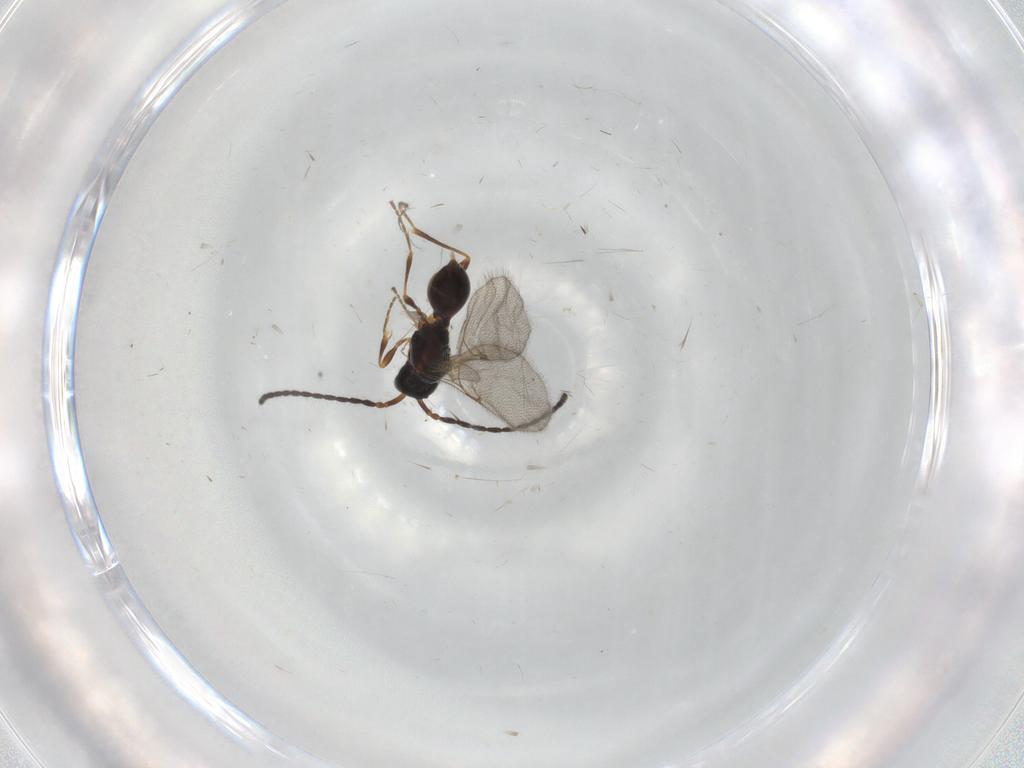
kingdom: Animalia
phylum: Arthropoda
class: Insecta
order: Hymenoptera
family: Diapriidae
